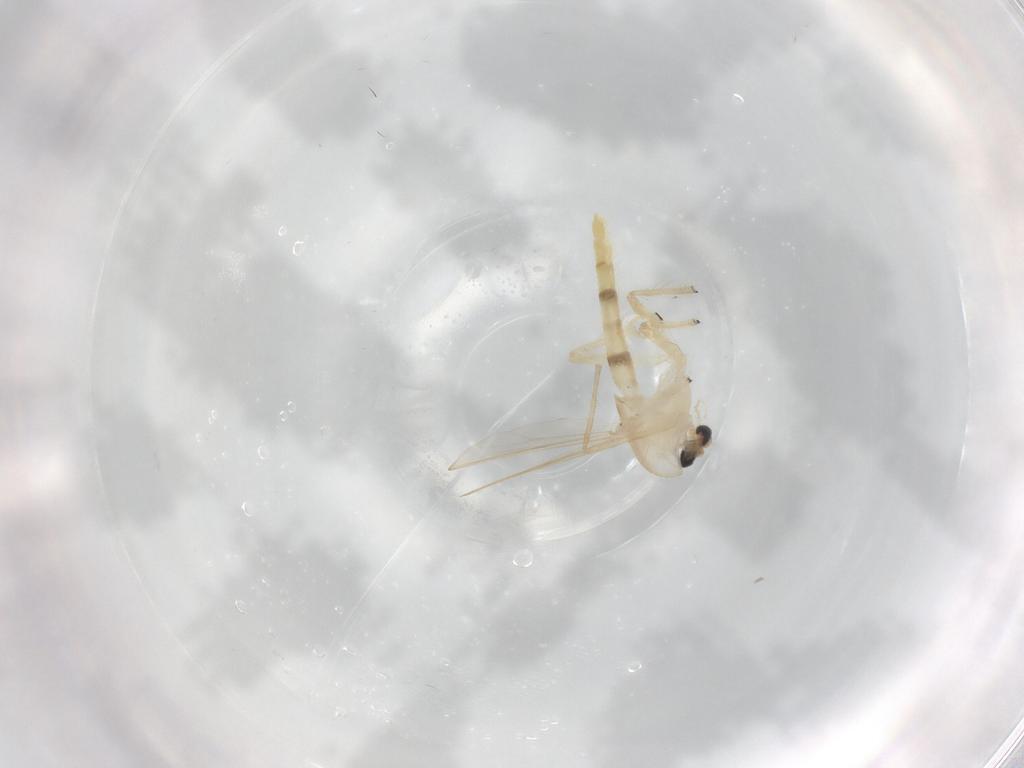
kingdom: Animalia
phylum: Arthropoda
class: Insecta
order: Diptera
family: Chironomidae
